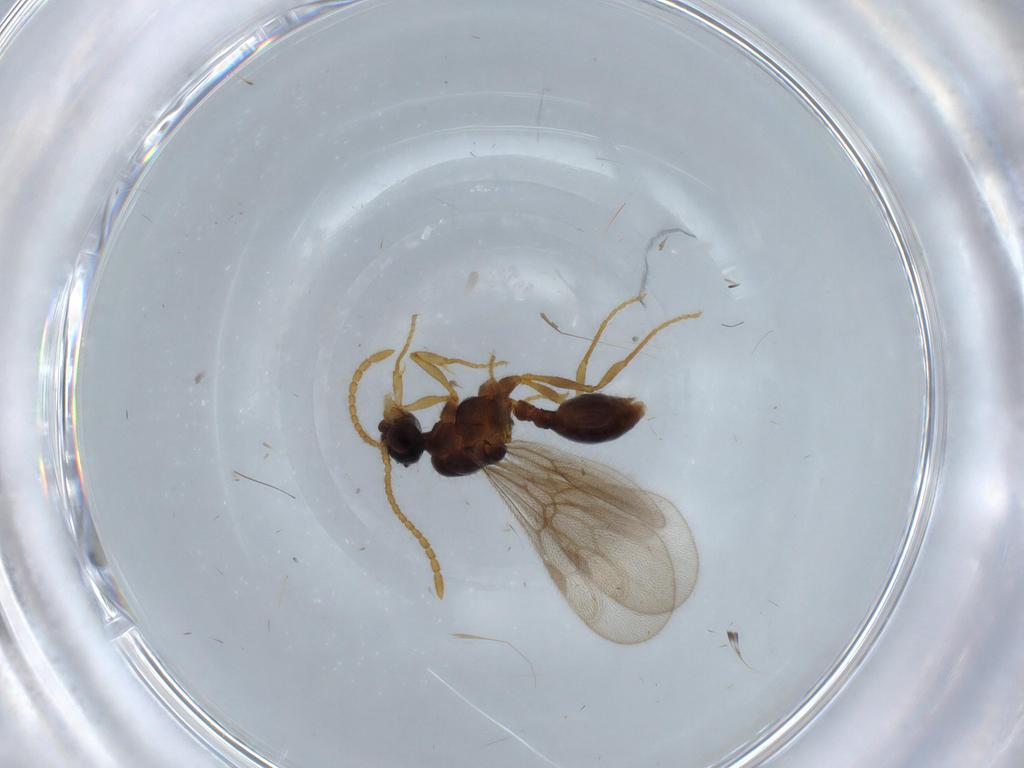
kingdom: Animalia
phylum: Arthropoda
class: Insecta
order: Hymenoptera
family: Formicidae
